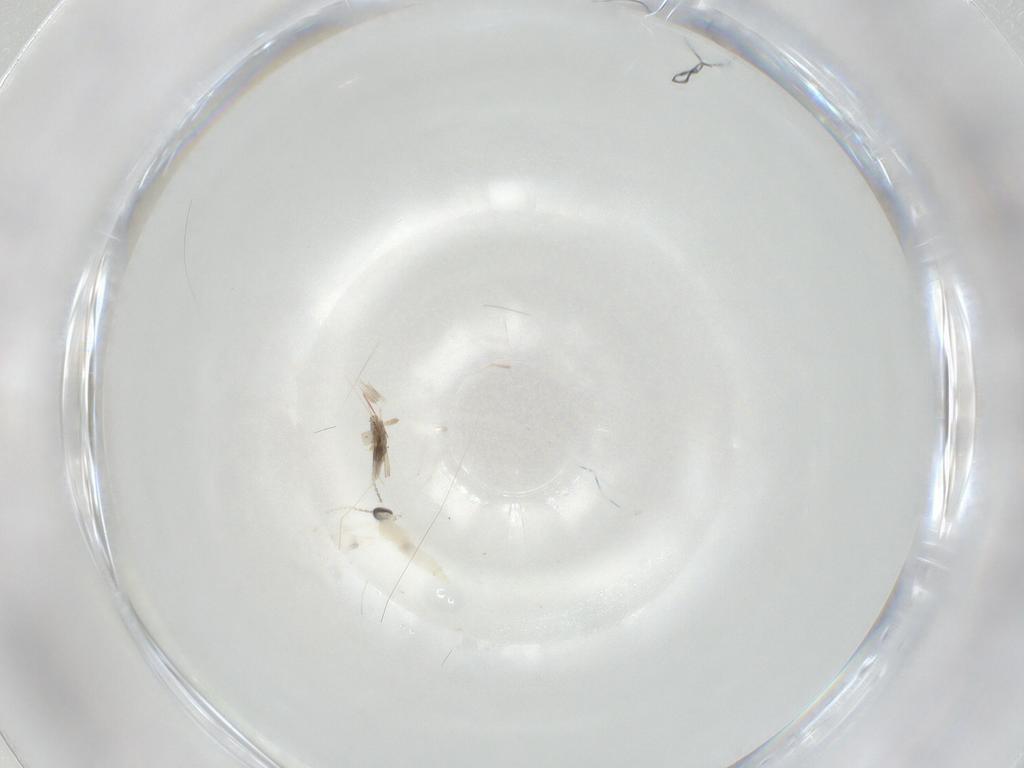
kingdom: Animalia
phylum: Arthropoda
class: Insecta
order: Diptera
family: Cecidomyiidae
